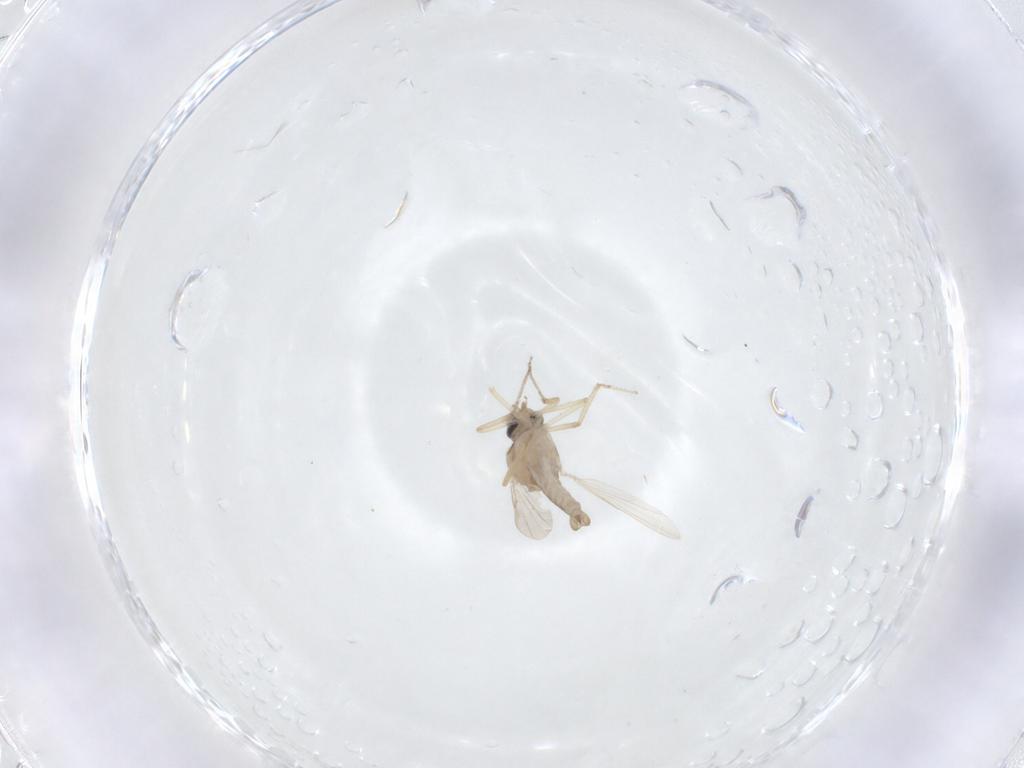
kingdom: Animalia
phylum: Arthropoda
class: Insecta
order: Diptera
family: Ceratopogonidae
